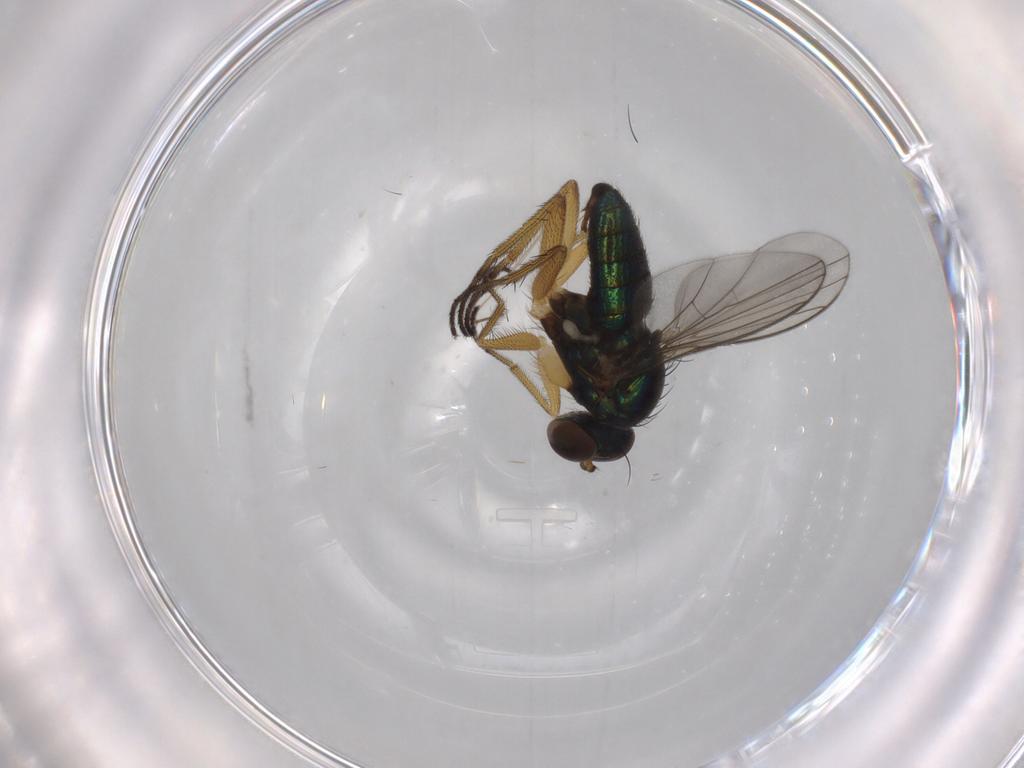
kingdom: Animalia
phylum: Arthropoda
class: Insecta
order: Diptera
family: Dolichopodidae
